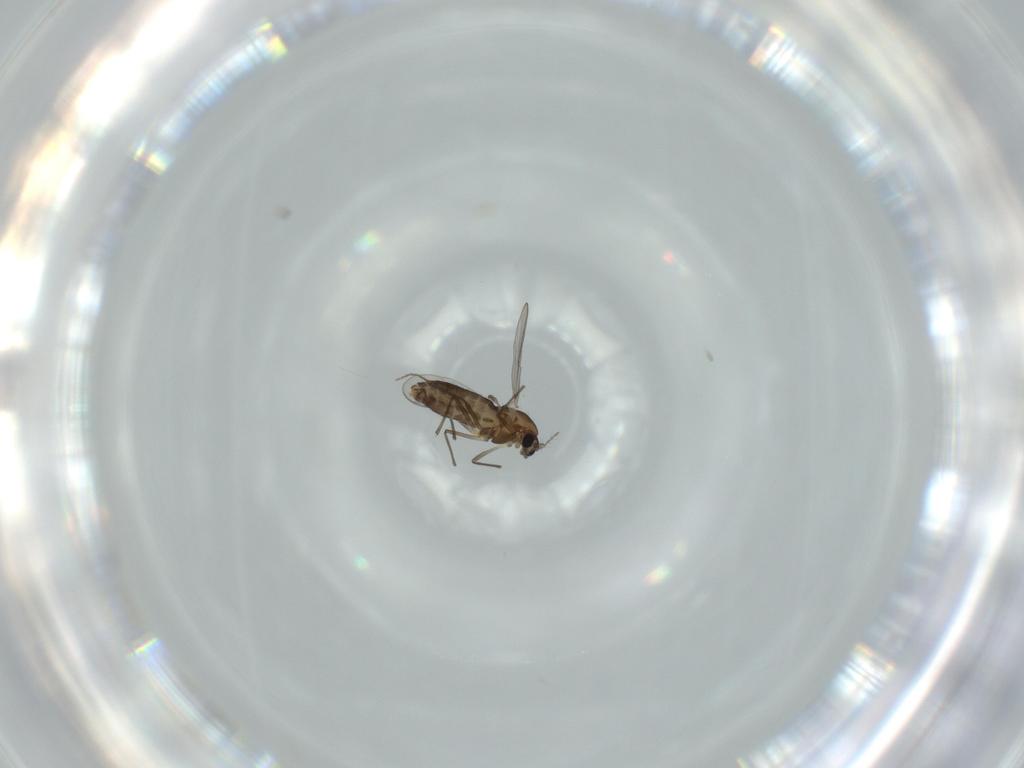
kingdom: Animalia
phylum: Arthropoda
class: Insecta
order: Diptera
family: Chironomidae
